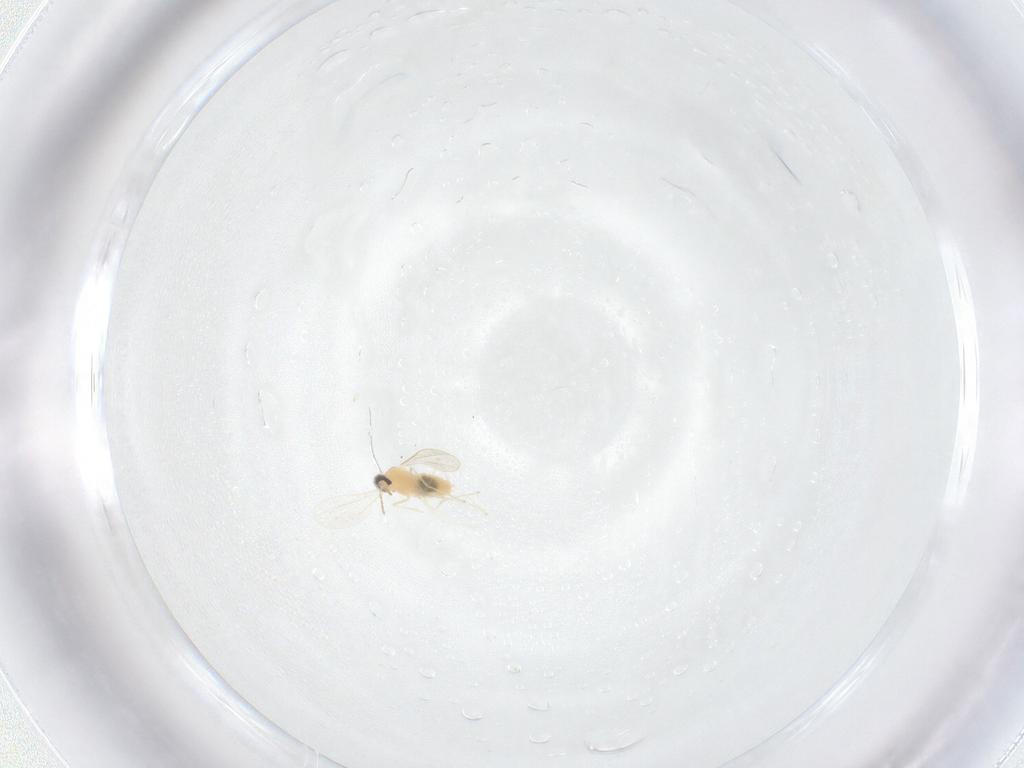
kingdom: Animalia
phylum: Arthropoda
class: Insecta
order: Diptera
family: Cecidomyiidae
